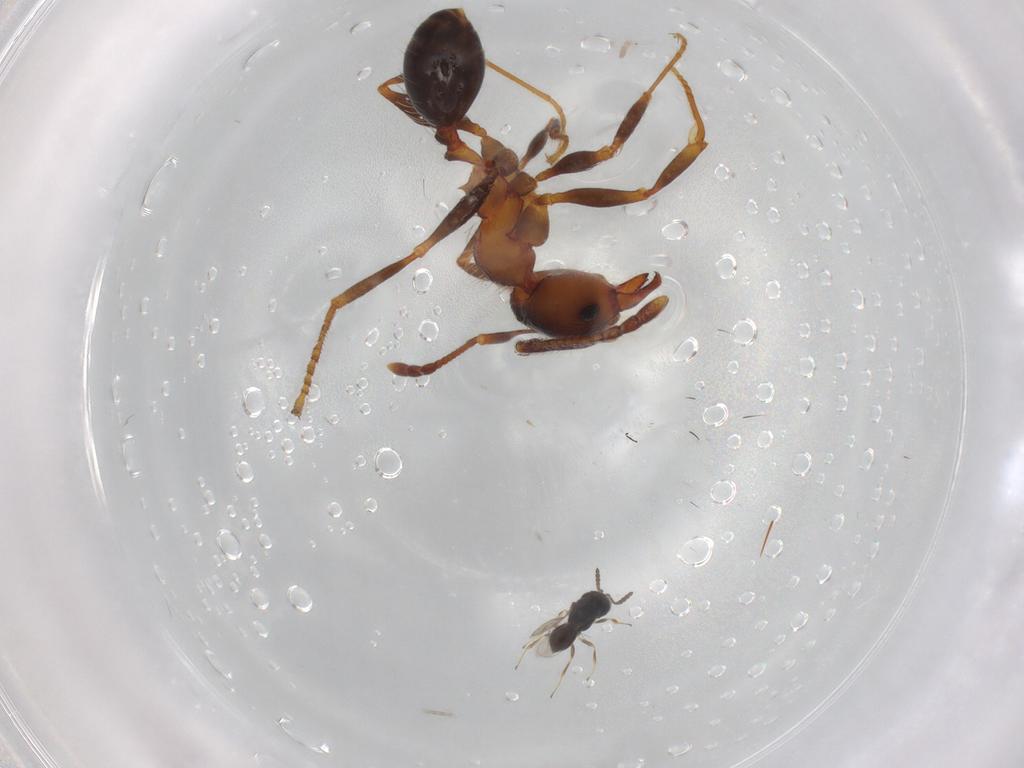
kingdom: Animalia
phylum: Arthropoda
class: Insecta
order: Hymenoptera
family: Scelionidae
